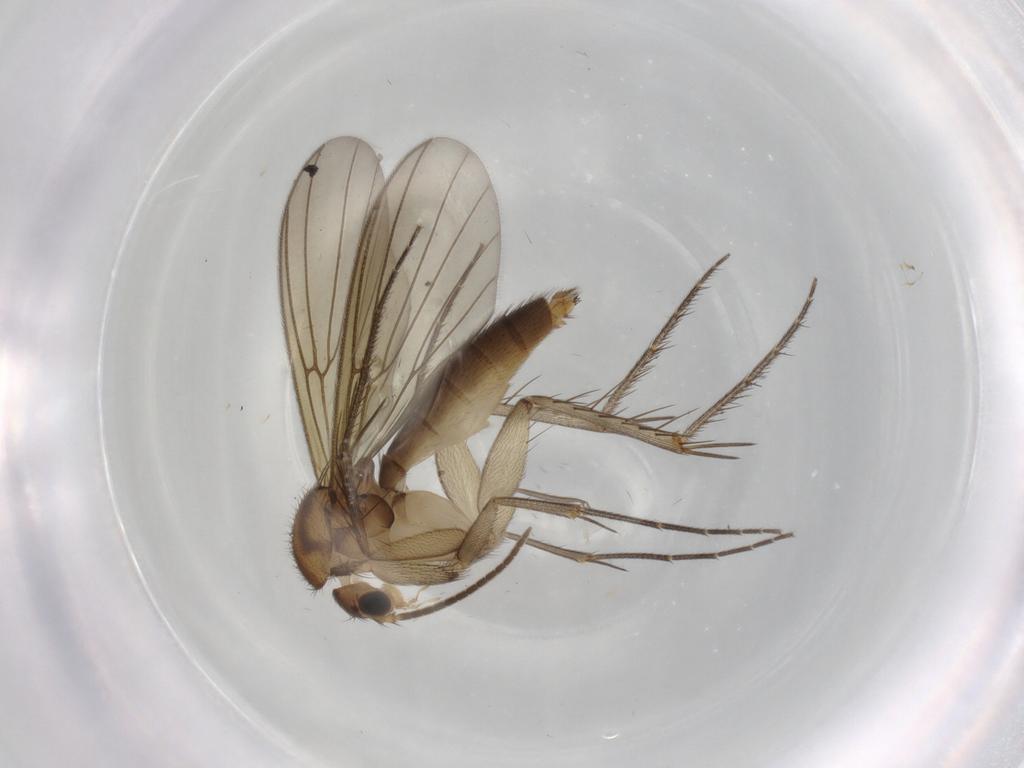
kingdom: Animalia
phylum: Arthropoda
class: Insecta
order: Diptera
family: Mycetophilidae
